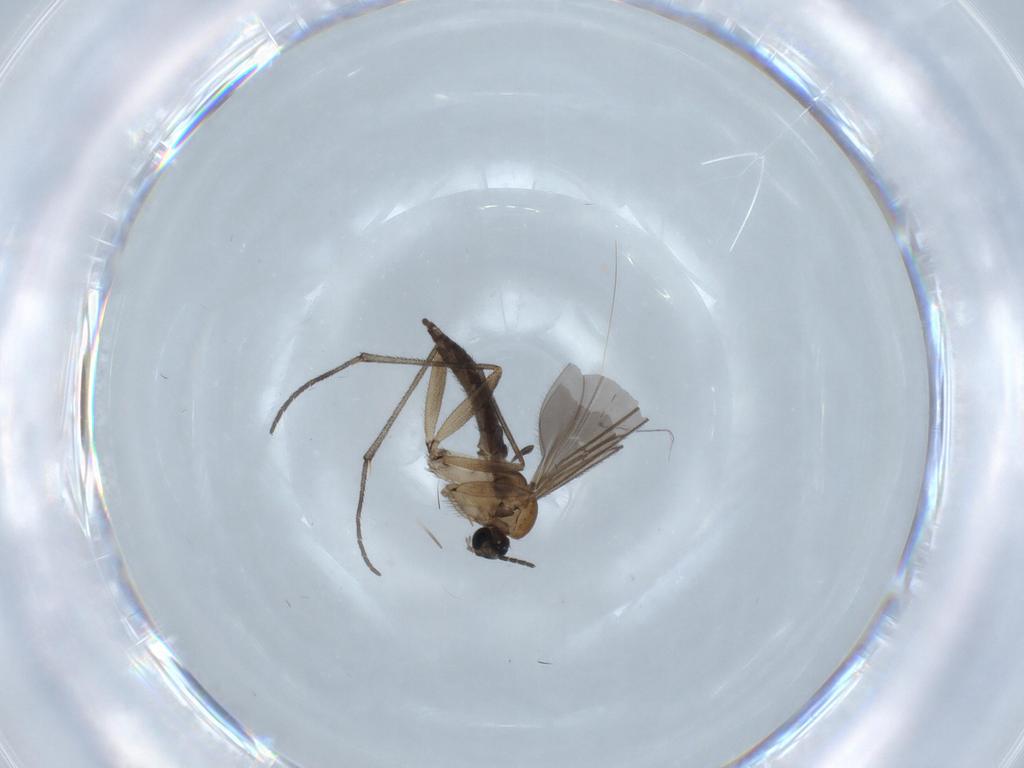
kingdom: Animalia
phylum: Arthropoda
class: Insecta
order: Diptera
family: Sciaridae
